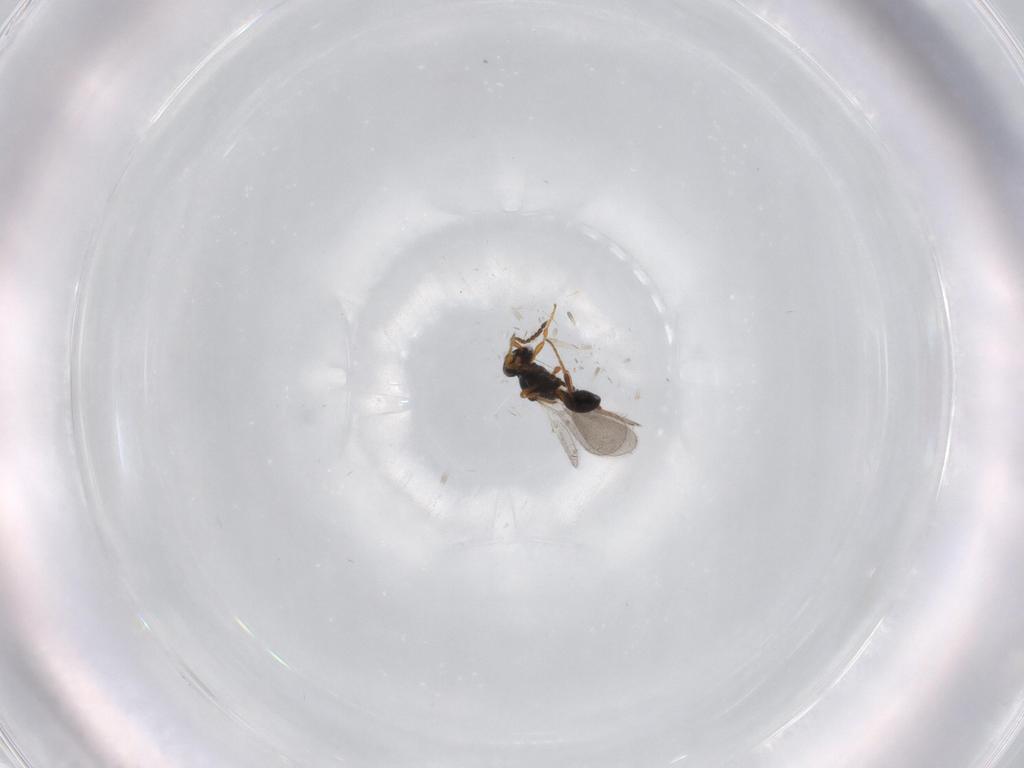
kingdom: Animalia
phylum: Arthropoda
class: Insecta
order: Hymenoptera
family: Platygastridae
